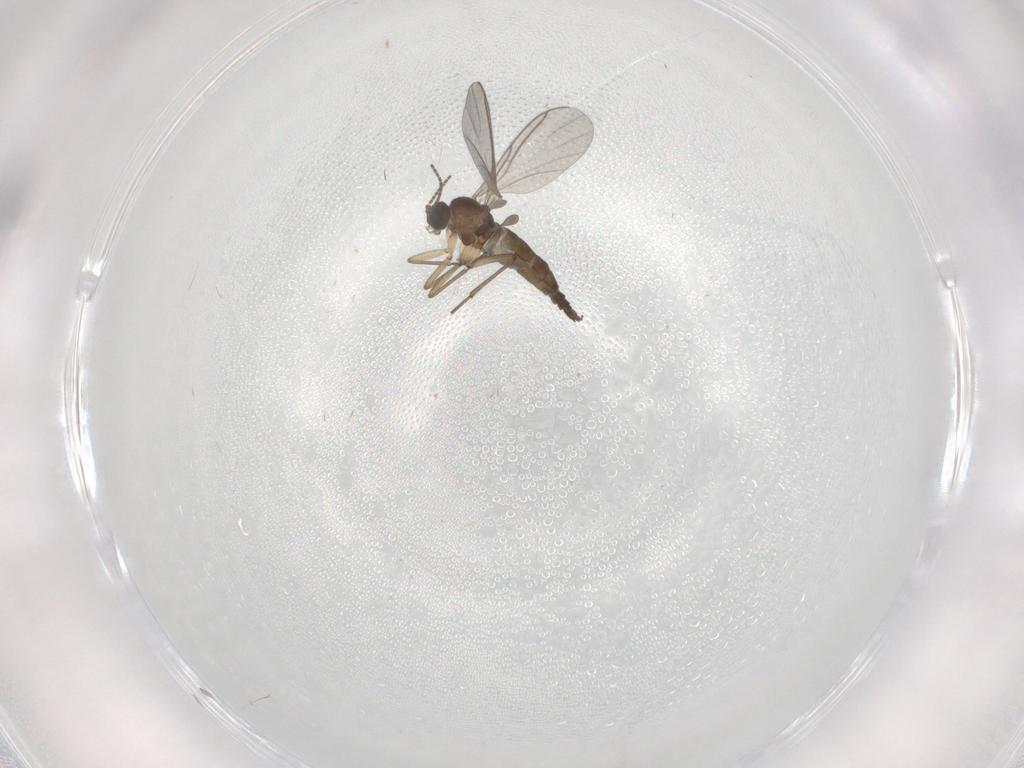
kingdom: Animalia
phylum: Arthropoda
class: Insecta
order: Diptera
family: Sciaridae
